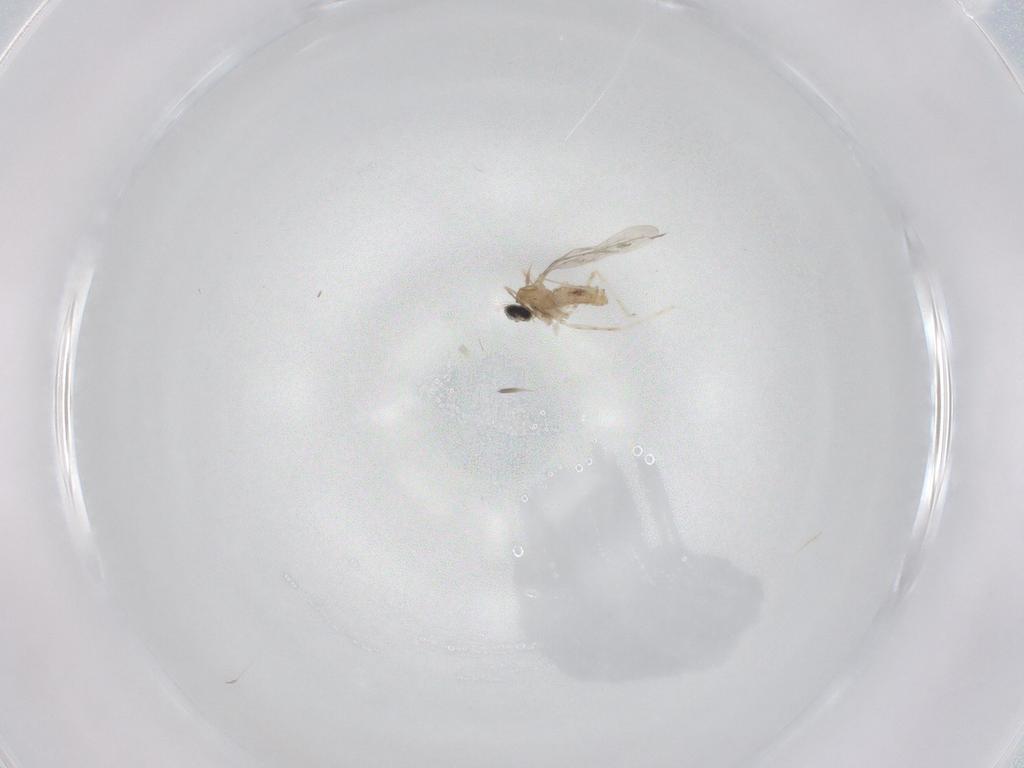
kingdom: Animalia
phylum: Arthropoda
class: Insecta
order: Diptera
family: Cecidomyiidae
